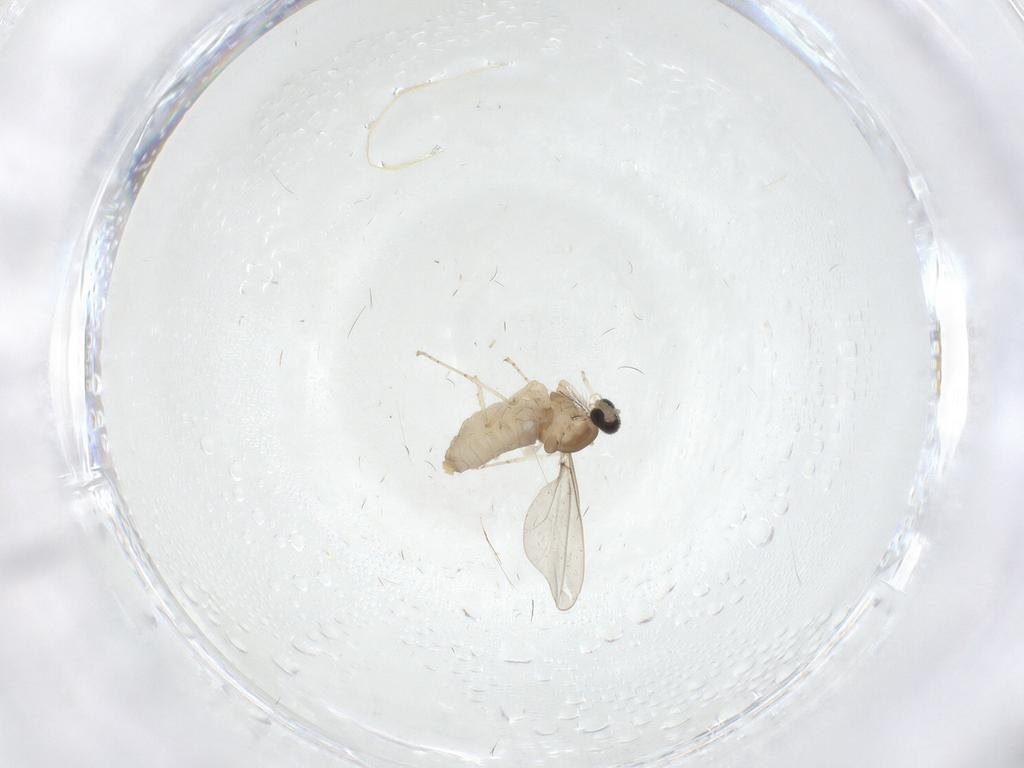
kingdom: Animalia
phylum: Arthropoda
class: Insecta
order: Diptera
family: Cecidomyiidae
